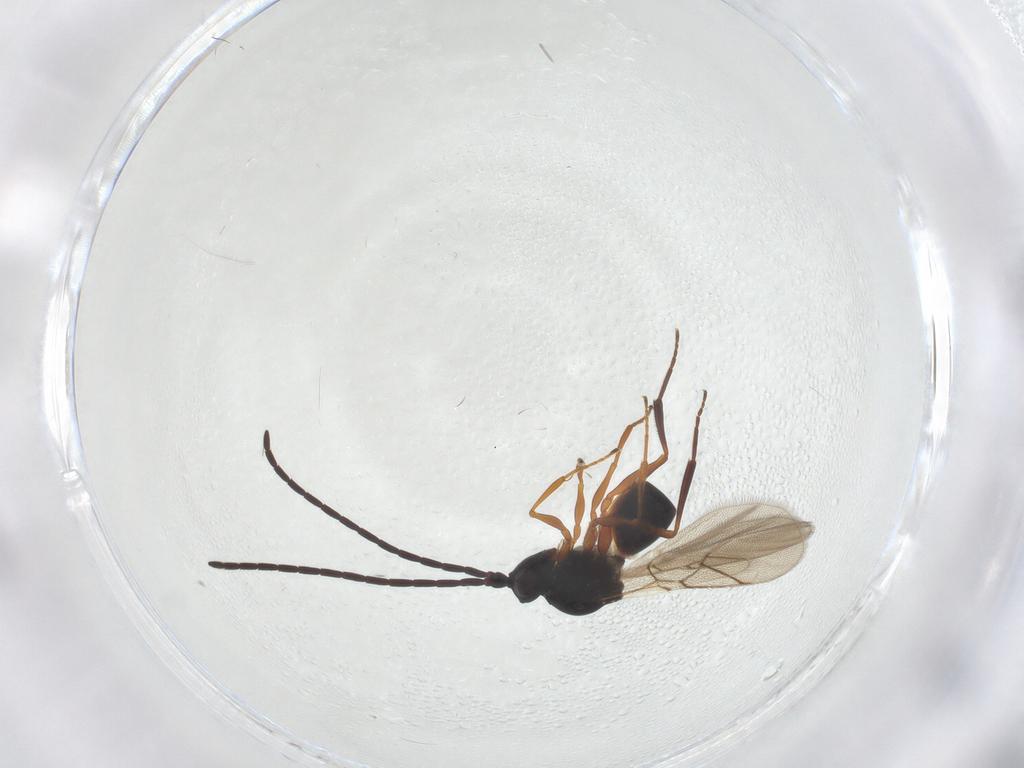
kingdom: Animalia
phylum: Arthropoda
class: Insecta
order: Hymenoptera
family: Figitidae
